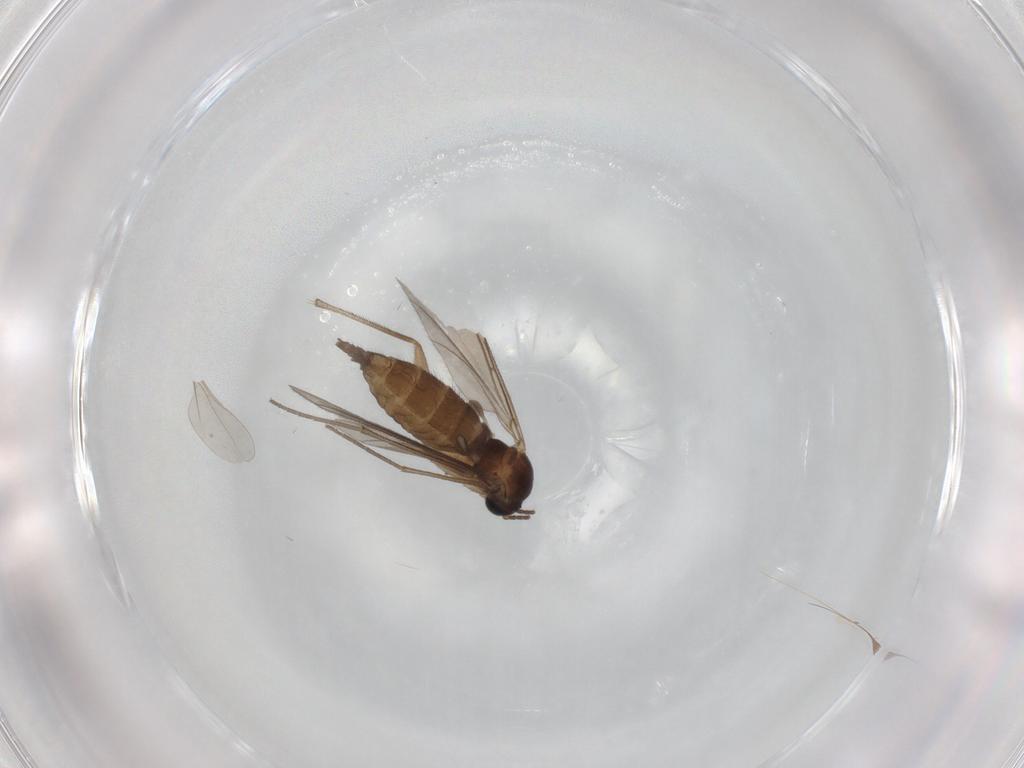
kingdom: Animalia
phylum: Arthropoda
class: Insecta
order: Diptera
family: Sciaridae
